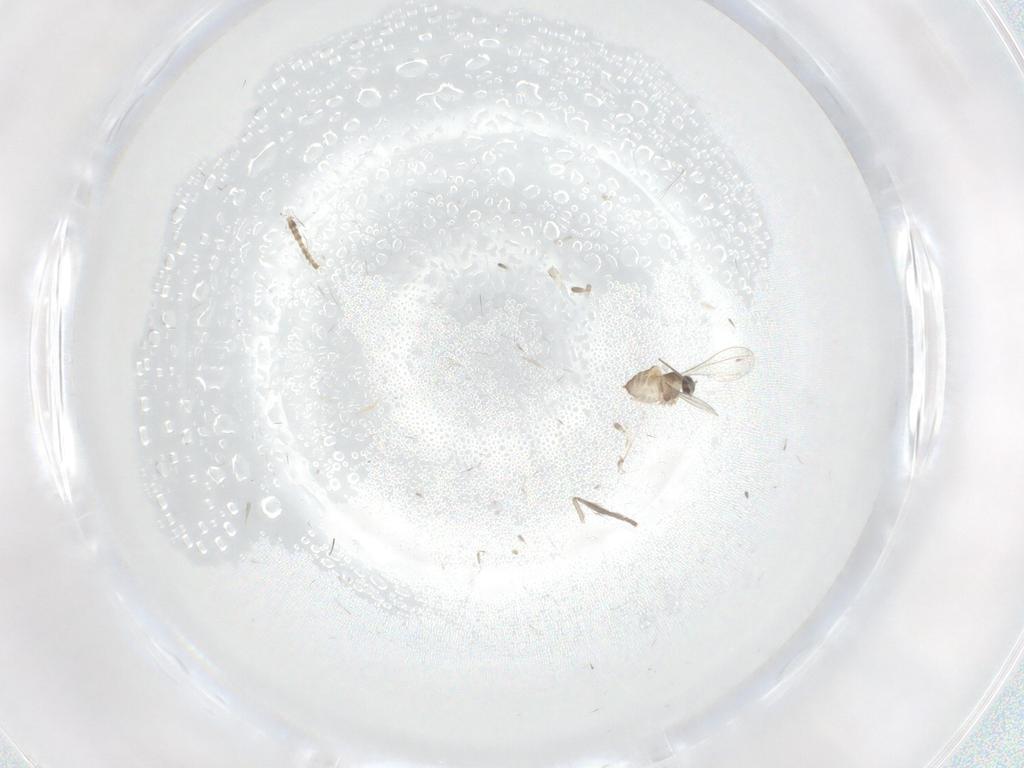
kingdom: Animalia
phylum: Arthropoda
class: Insecta
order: Diptera
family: Cecidomyiidae
